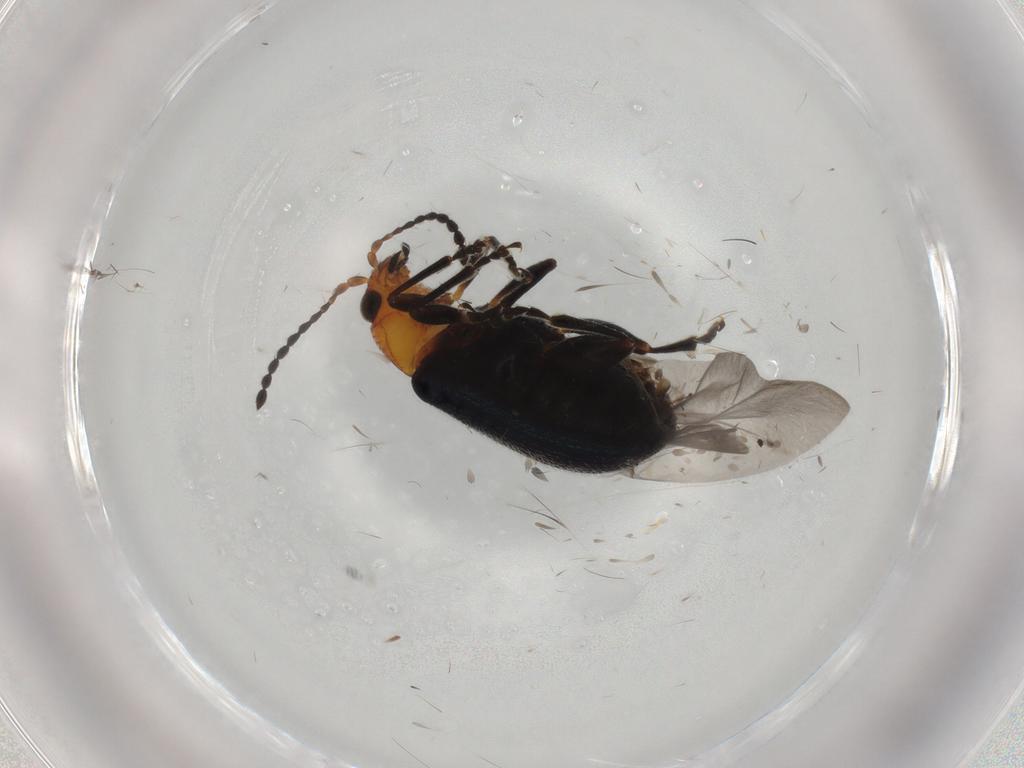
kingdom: Animalia
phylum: Arthropoda
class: Insecta
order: Coleoptera
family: Chrysomelidae
